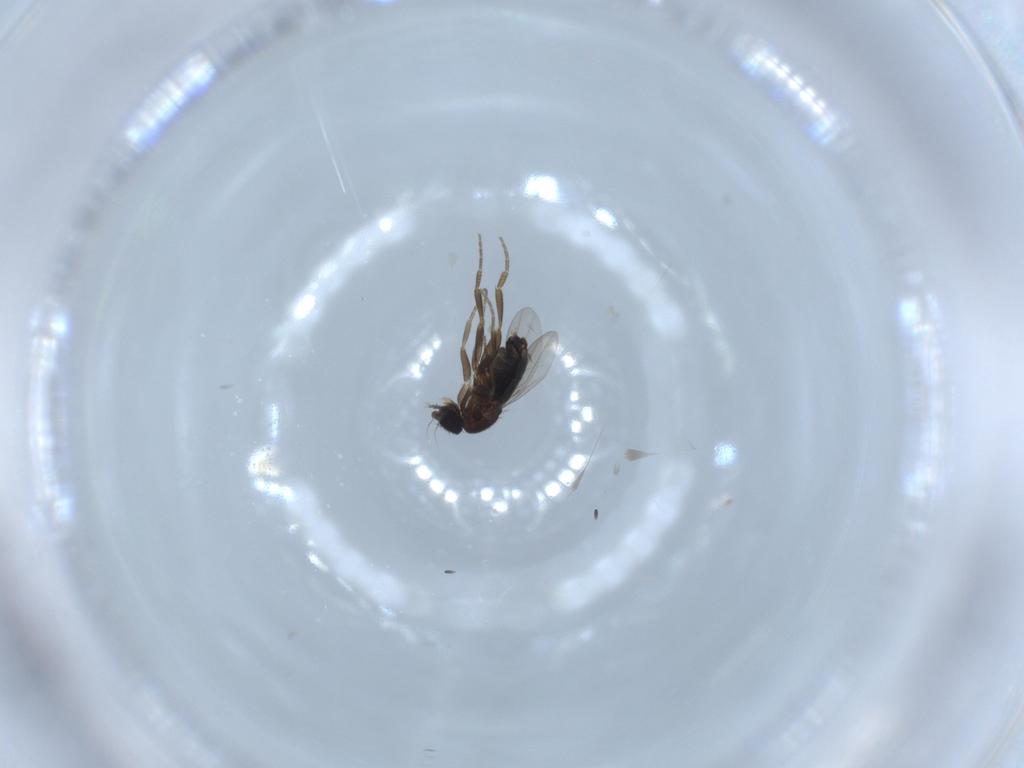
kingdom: Animalia
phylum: Arthropoda
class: Insecta
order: Diptera
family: Phoridae
